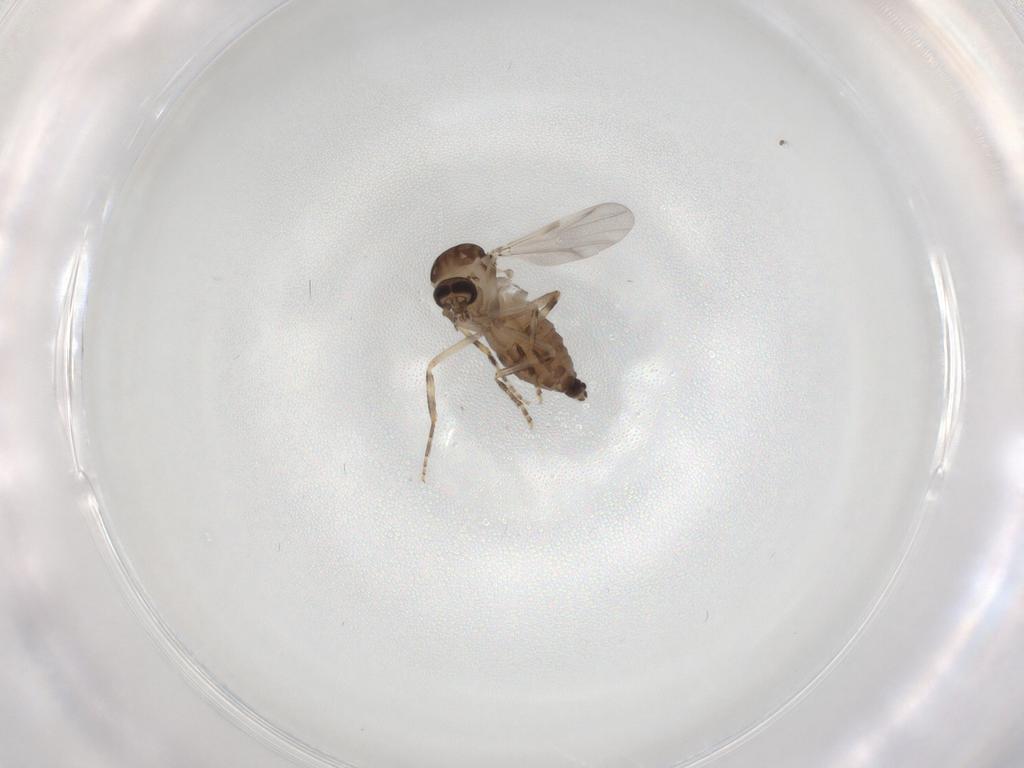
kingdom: Animalia
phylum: Arthropoda
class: Insecta
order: Diptera
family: Ceratopogonidae
